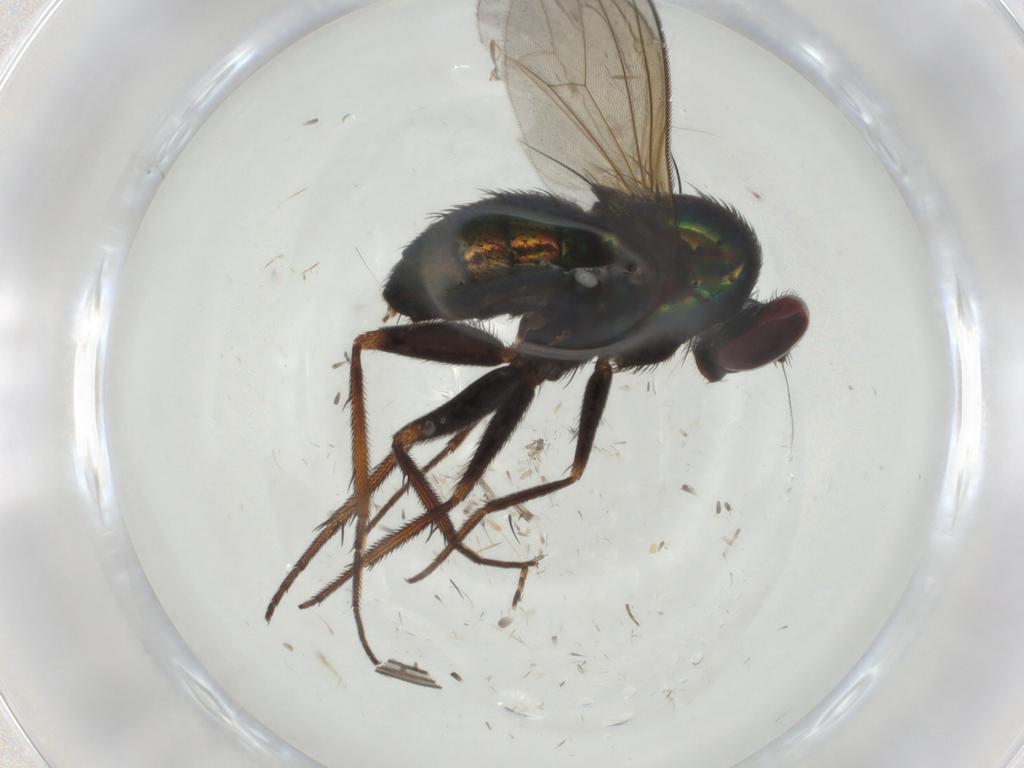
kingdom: Animalia
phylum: Arthropoda
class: Insecta
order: Diptera
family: Dolichopodidae
